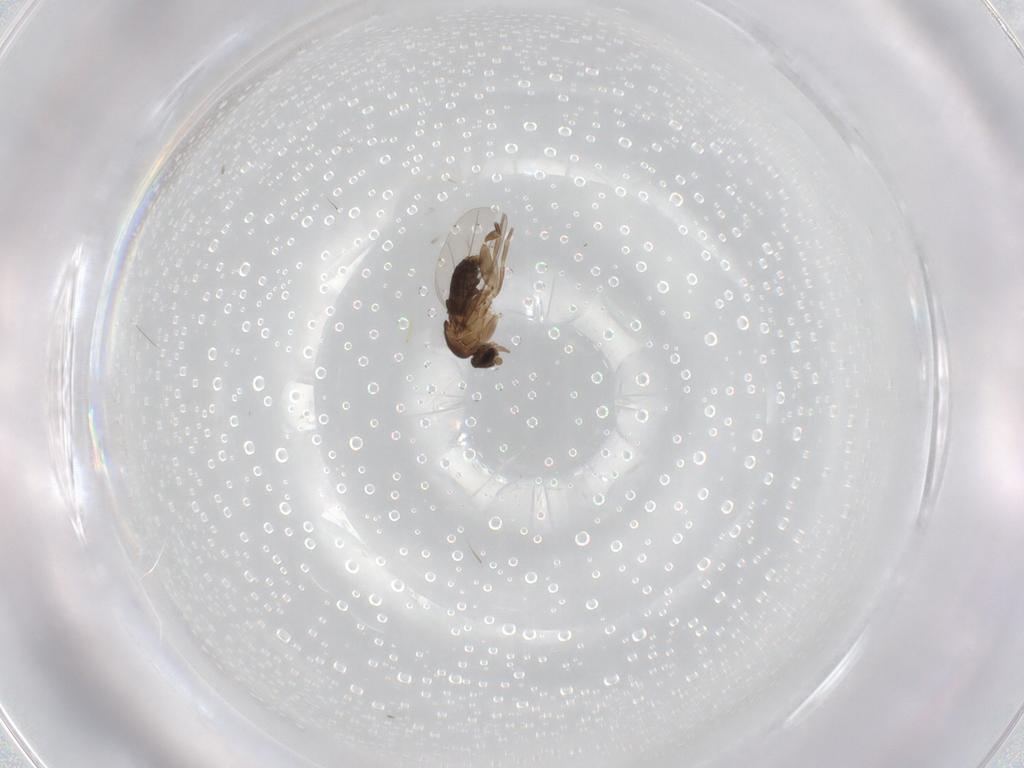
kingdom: Animalia
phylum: Arthropoda
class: Insecta
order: Diptera
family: Phoridae
